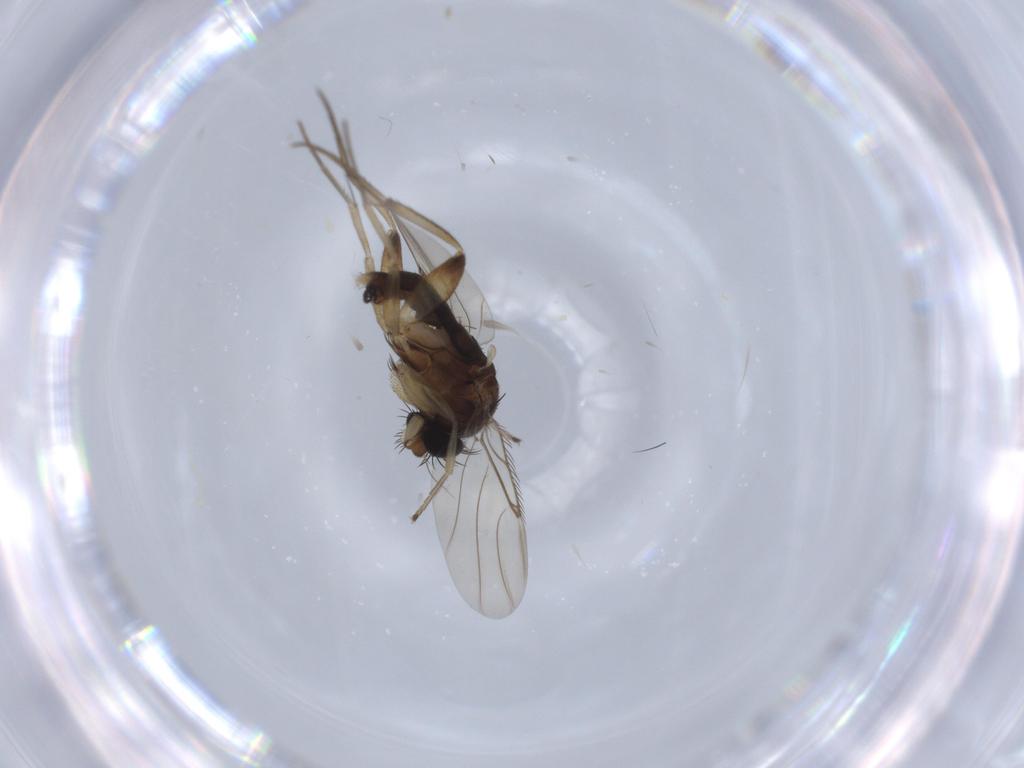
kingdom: Animalia
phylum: Arthropoda
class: Insecta
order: Diptera
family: Phoridae
